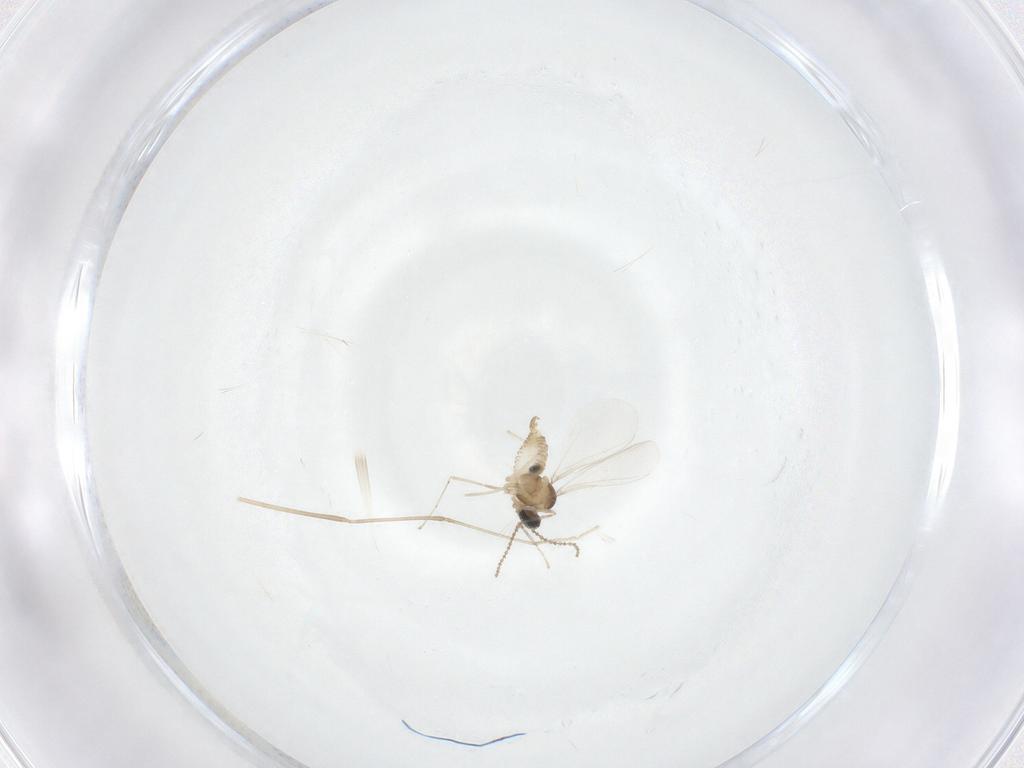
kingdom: Animalia
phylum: Arthropoda
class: Insecta
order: Diptera
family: Cecidomyiidae
